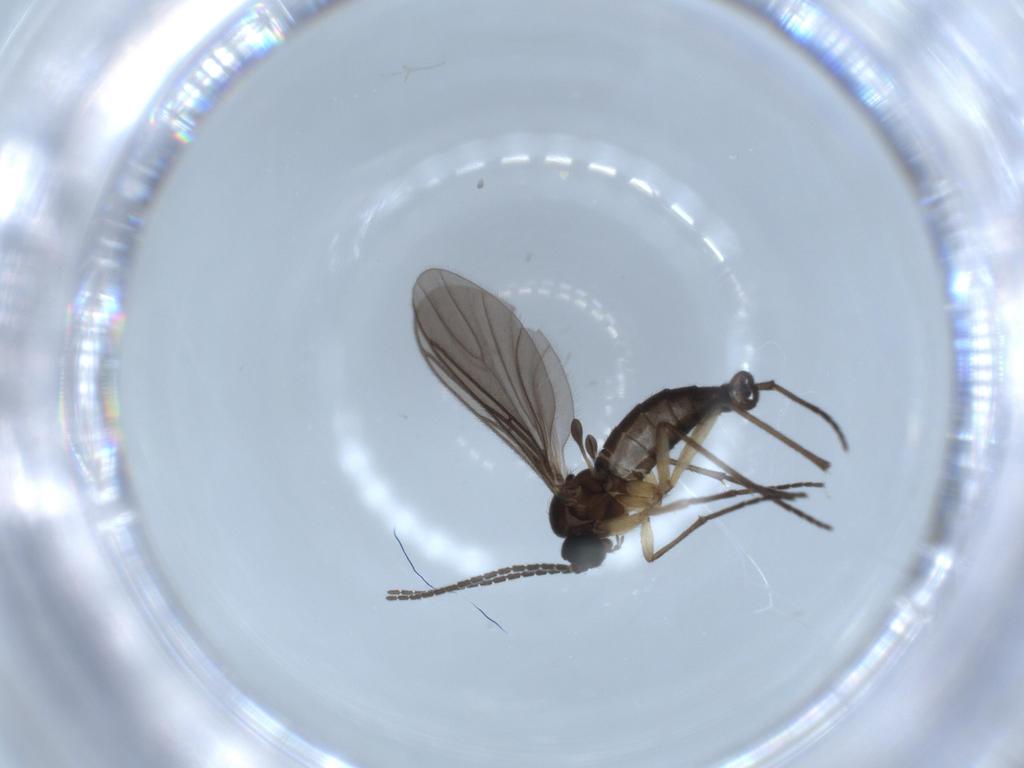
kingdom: Animalia
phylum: Arthropoda
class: Insecta
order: Diptera
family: Sciaridae
